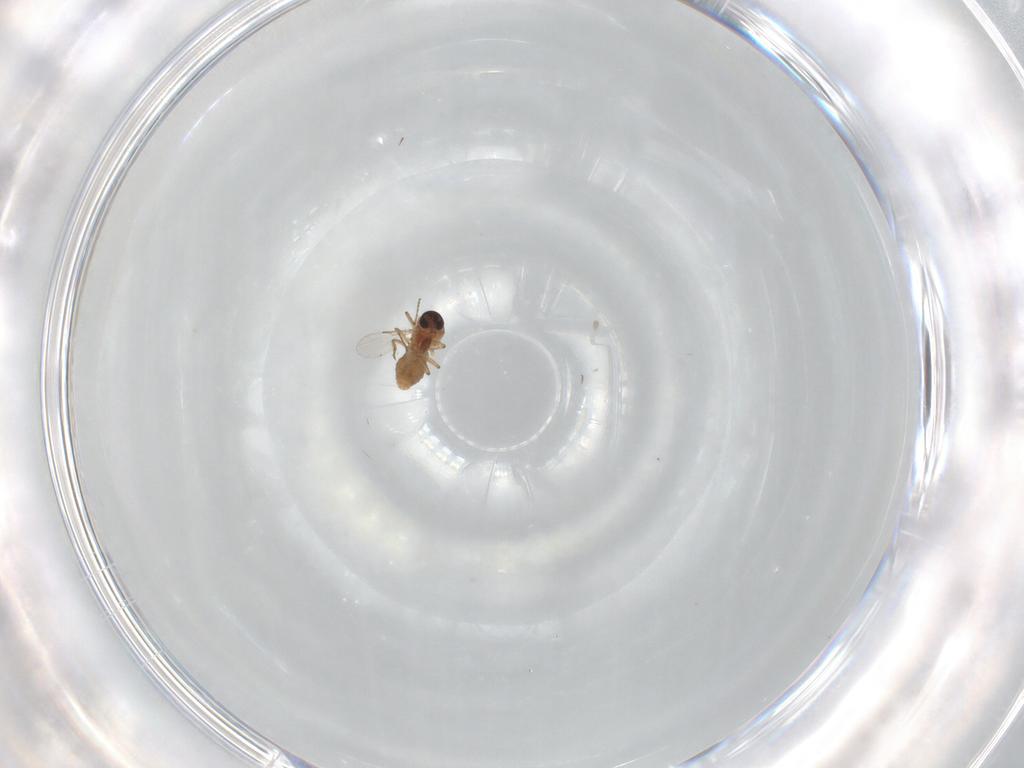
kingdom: Animalia
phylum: Arthropoda
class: Insecta
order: Diptera
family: Ceratopogonidae
